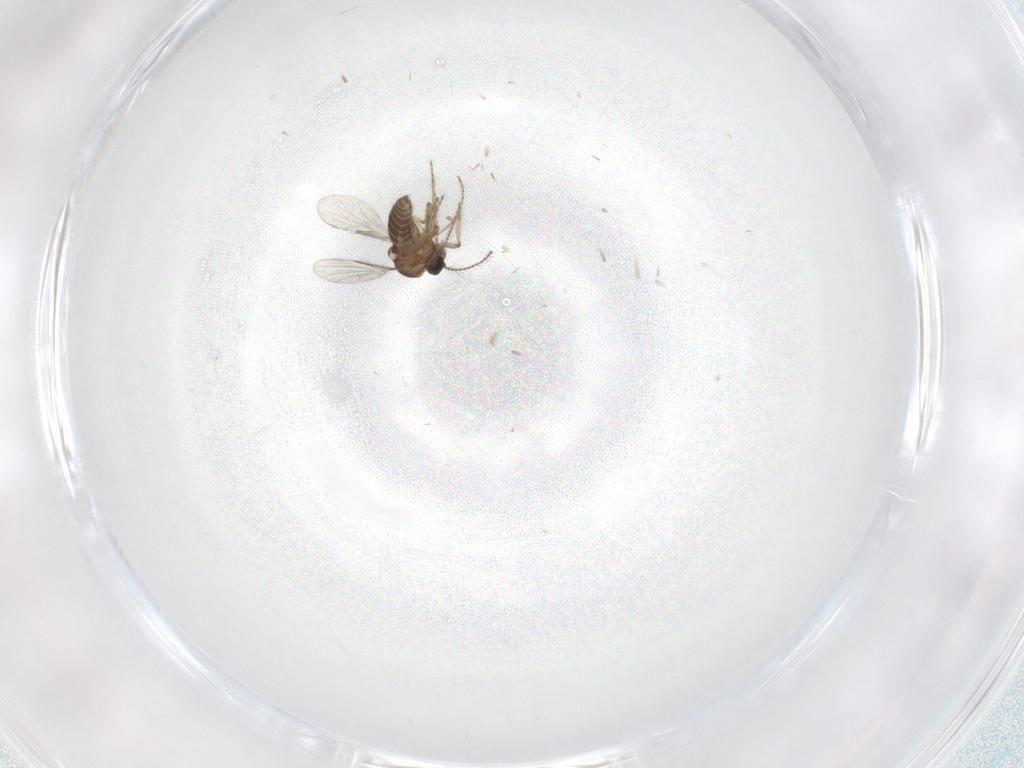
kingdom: Animalia
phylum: Arthropoda
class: Insecta
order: Diptera
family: Ceratopogonidae
